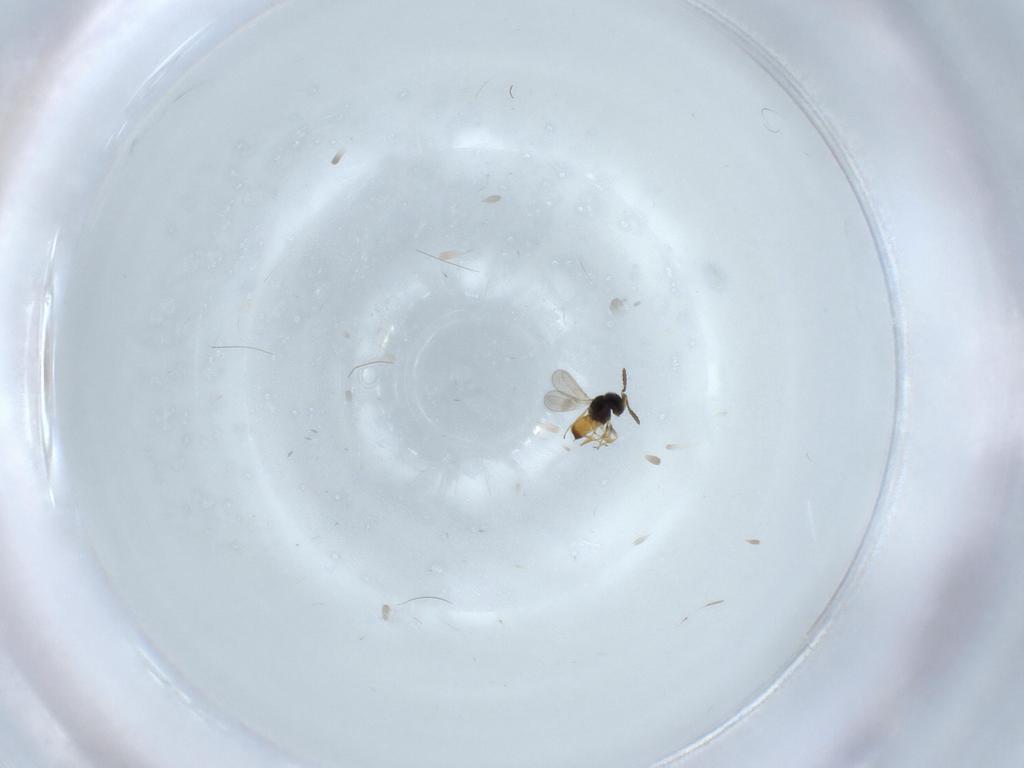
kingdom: Animalia
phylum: Arthropoda
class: Insecta
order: Hymenoptera
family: Scelionidae
